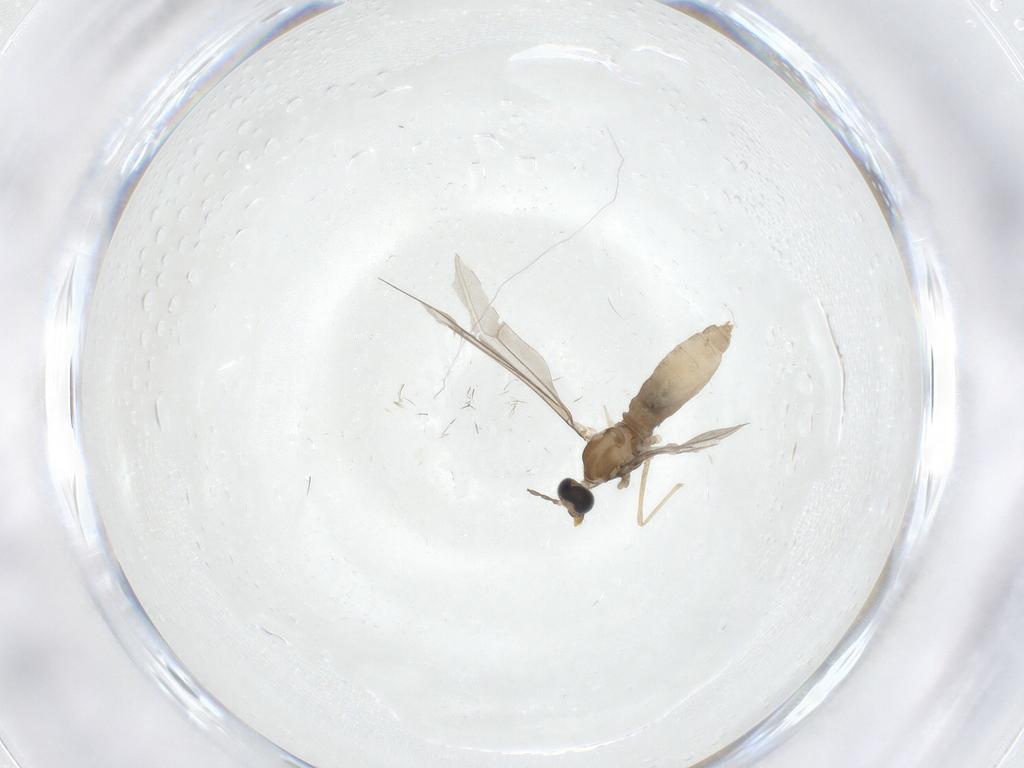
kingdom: Animalia
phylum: Arthropoda
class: Insecta
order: Diptera
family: Cecidomyiidae
